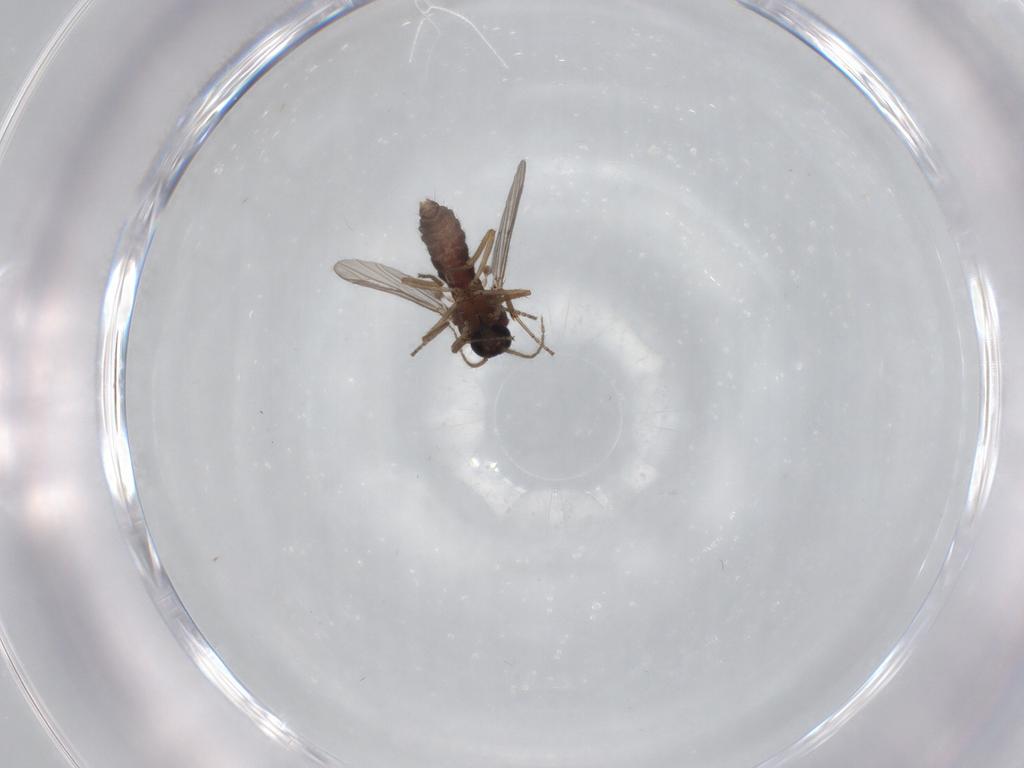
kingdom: Animalia
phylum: Arthropoda
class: Insecta
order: Diptera
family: Ceratopogonidae
